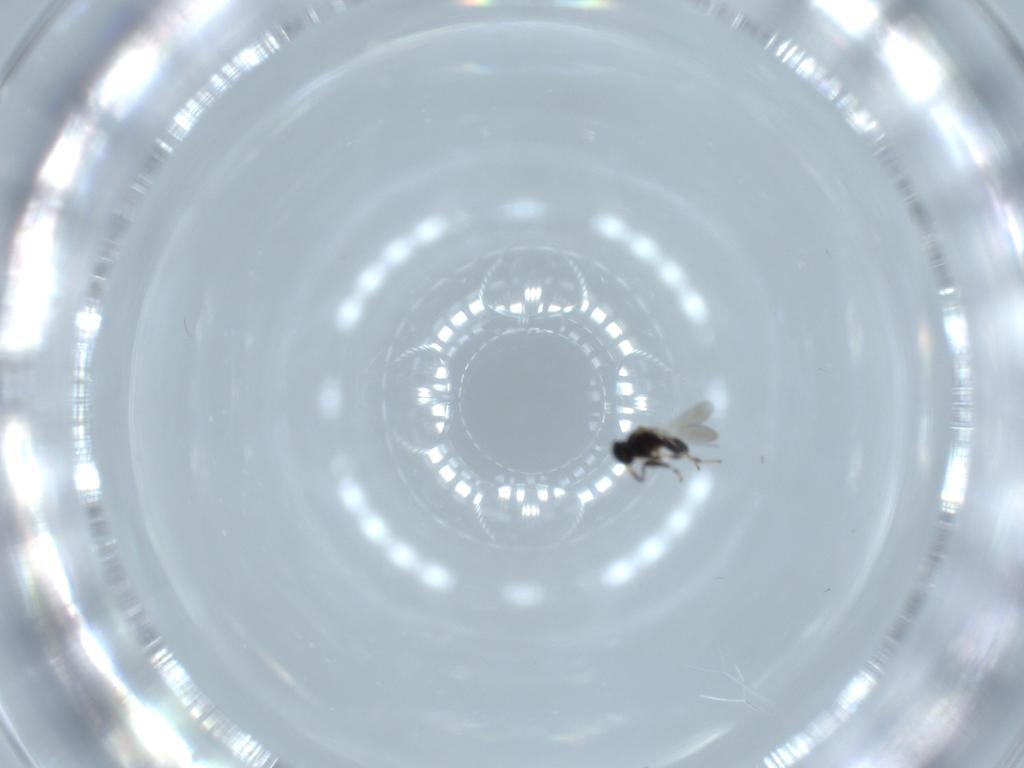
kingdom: Animalia
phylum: Arthropoda
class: Insecta
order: Hymenoptera
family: Platygastridae
